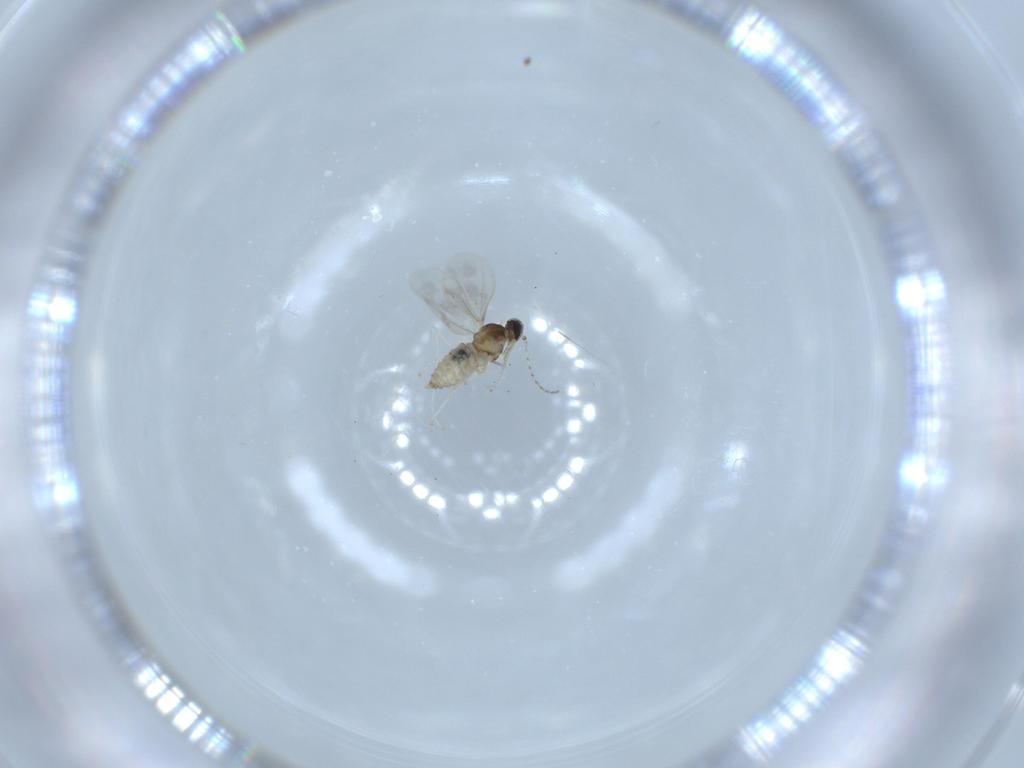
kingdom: Animalia
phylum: Arthropoda
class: Insecta
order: Diptera
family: Cecidomyiidae
